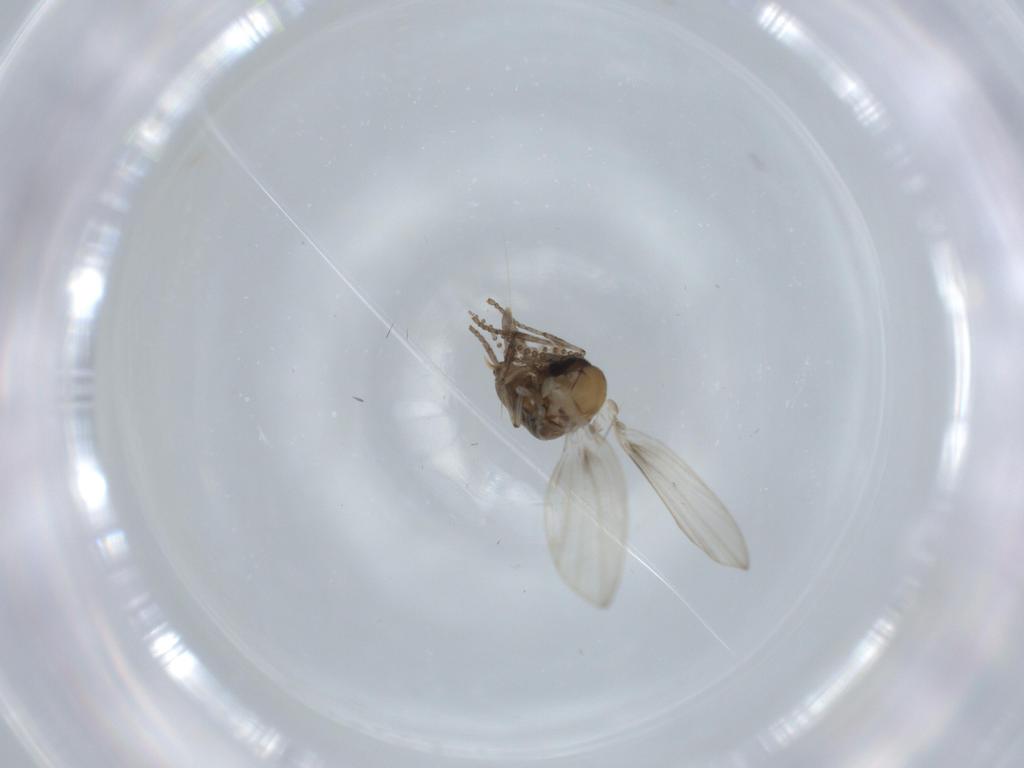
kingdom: Animalia
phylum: Arthropoda
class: Insecta
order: Diptera
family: Psychodidae
